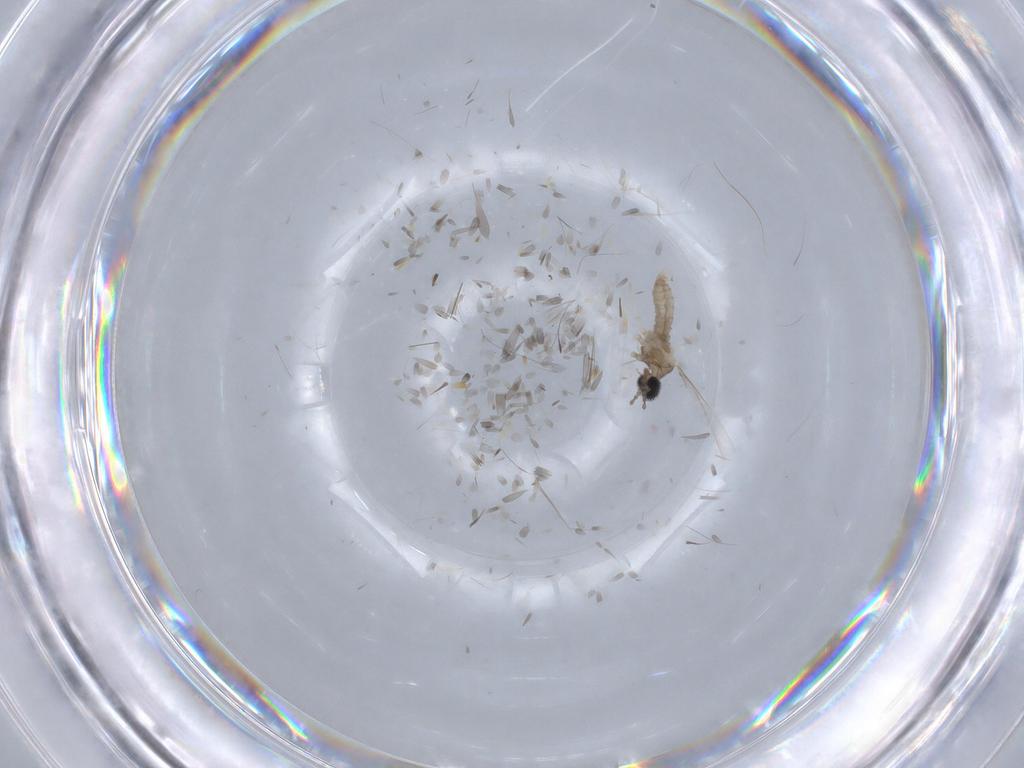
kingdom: Animalia
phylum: Arthropoda
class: Insecta
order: Diptera
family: Cecidomyiidae
